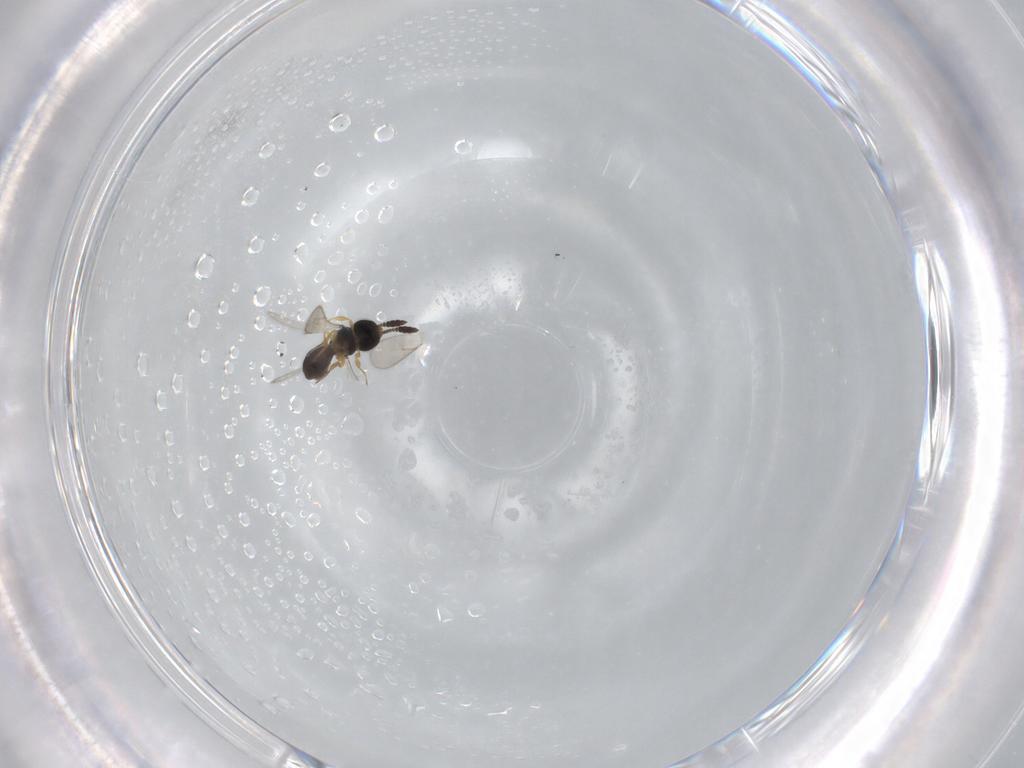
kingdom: Animalia
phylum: Arthropoda
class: Insecta
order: Hymenoptera
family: Scelionidae
